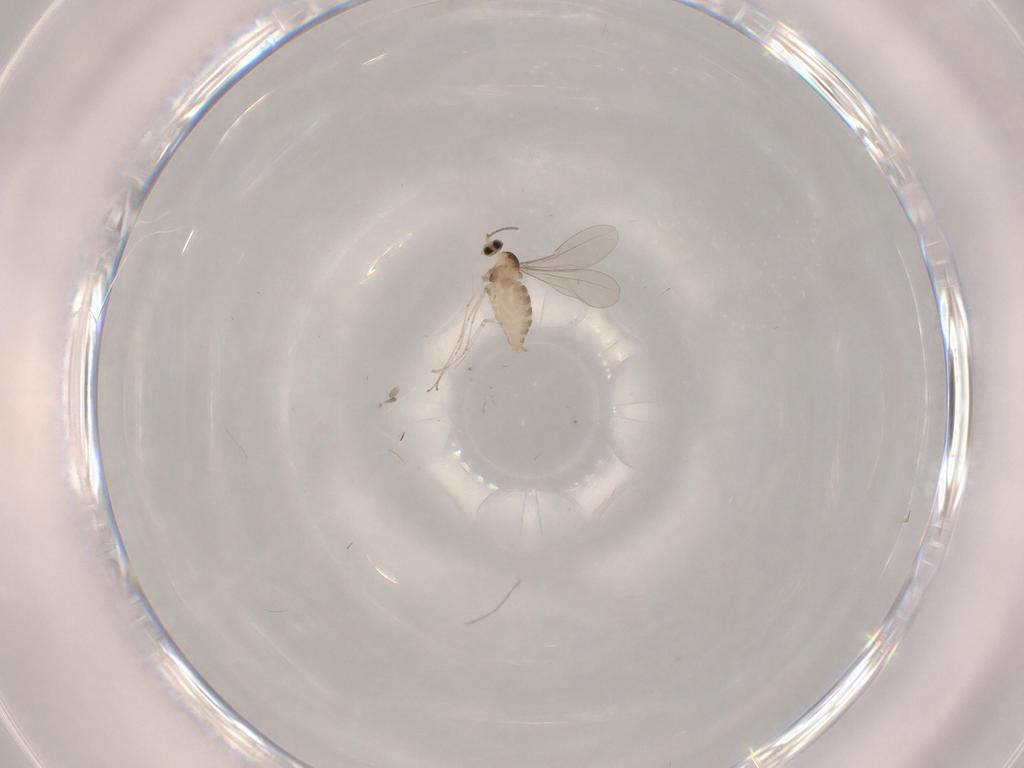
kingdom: Animalia
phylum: Arthropoda
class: Insecta
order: Diptera
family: Cecidomyiidae
